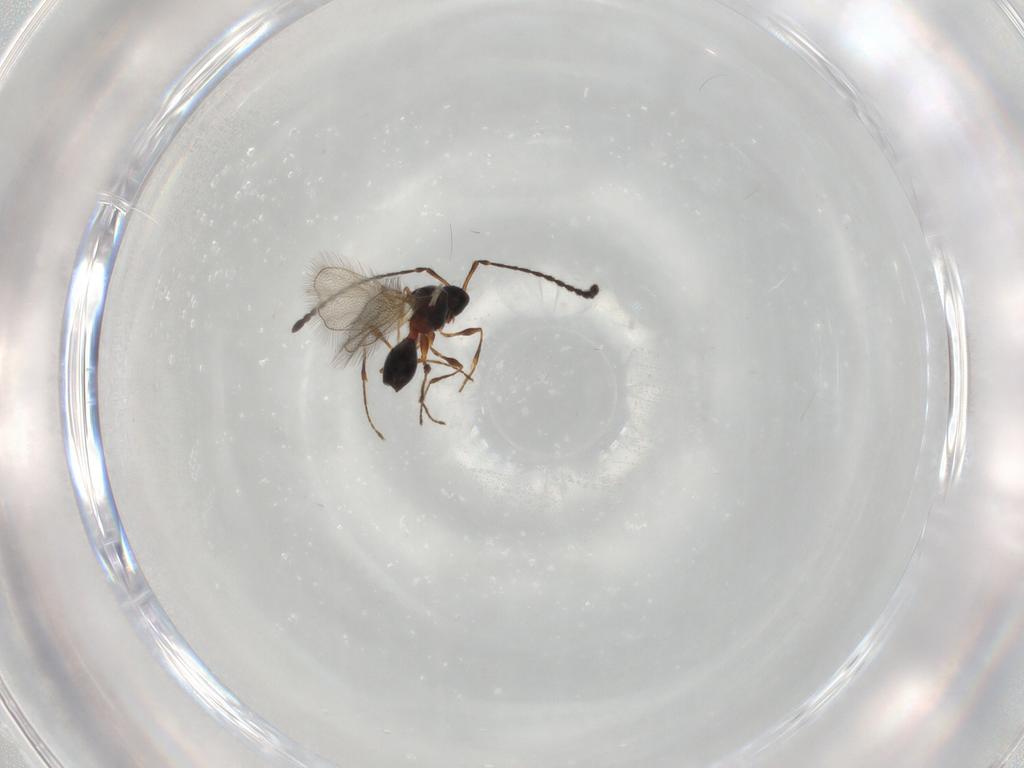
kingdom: Animalia
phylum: Arthropoda
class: Insecta
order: Hymenoptera
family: Diapriidae
